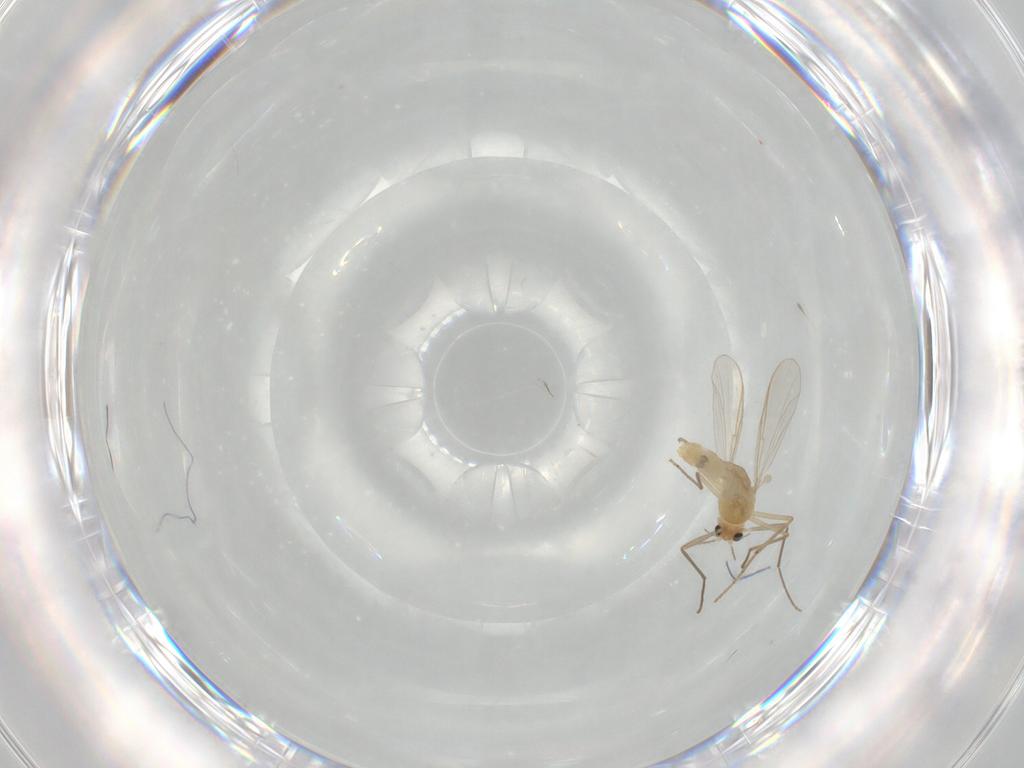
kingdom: Animalia
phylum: Arthropoda
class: Insecta
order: Diptera
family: Chironomidae
